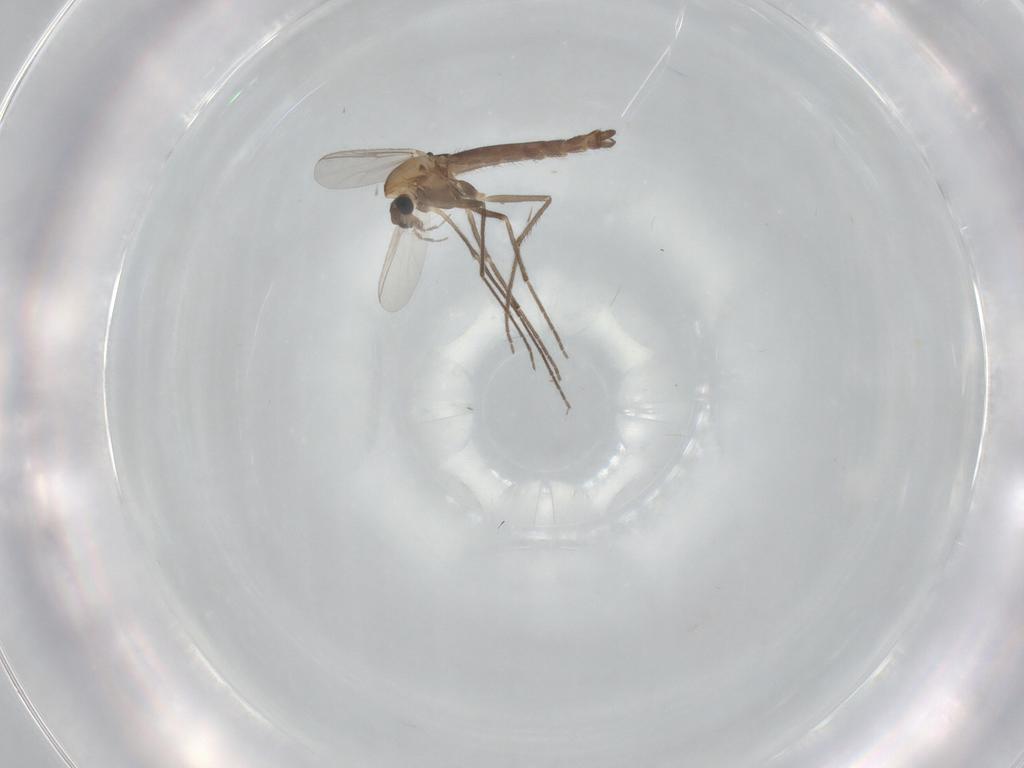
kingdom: Animalia
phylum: Arthropoda
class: Insecta
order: Diptera
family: Chironomidae
